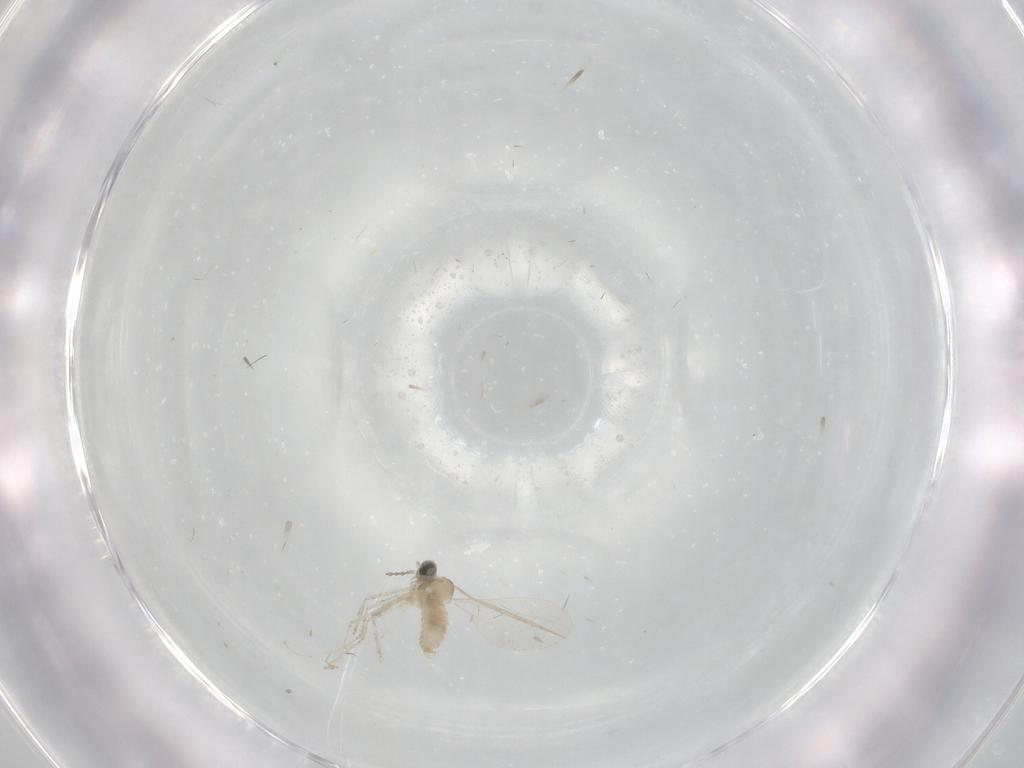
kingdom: Animalia
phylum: Arthropoda
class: Insecta
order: Diptera
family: Cecidomyiidae
